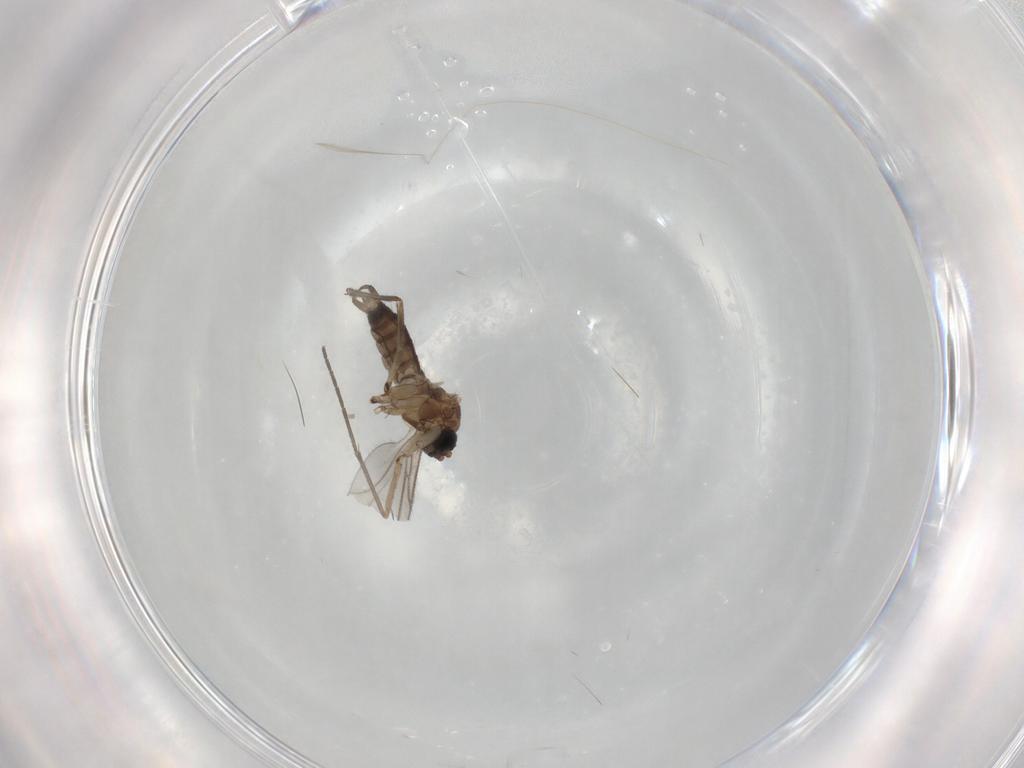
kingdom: Animalia
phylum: Arthropoda
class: Insecta
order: Diptera
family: Sciaridae
